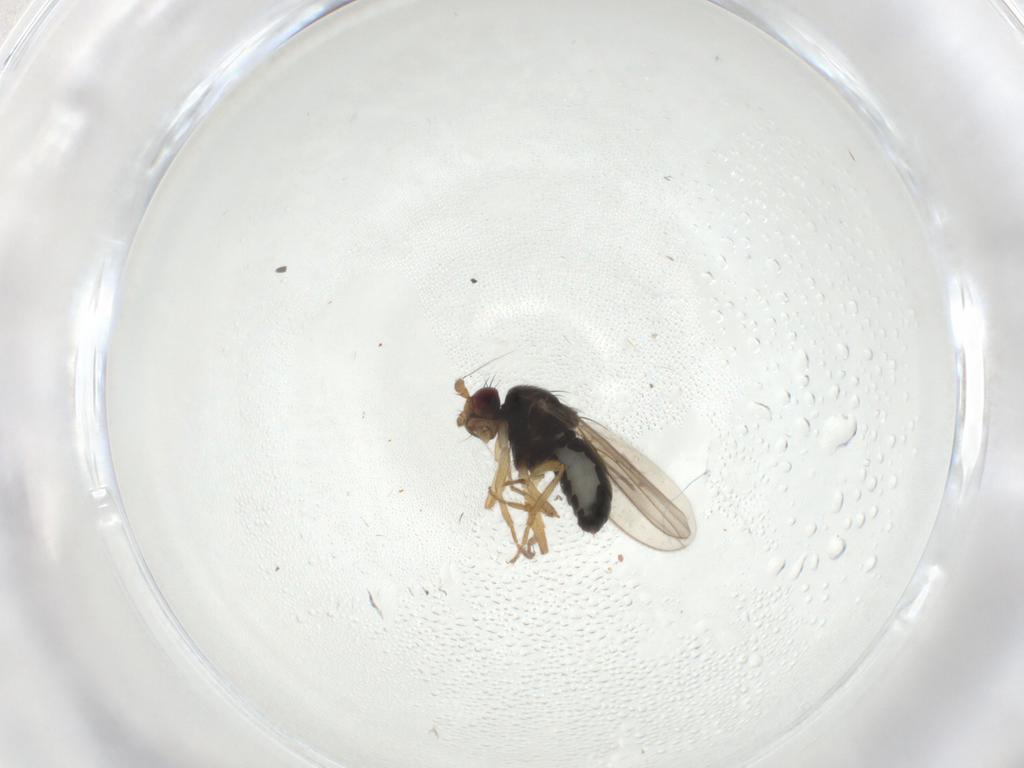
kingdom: Animalia
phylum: Arthropoda
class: Insecta
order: Diptera
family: Sphaeroceridae
